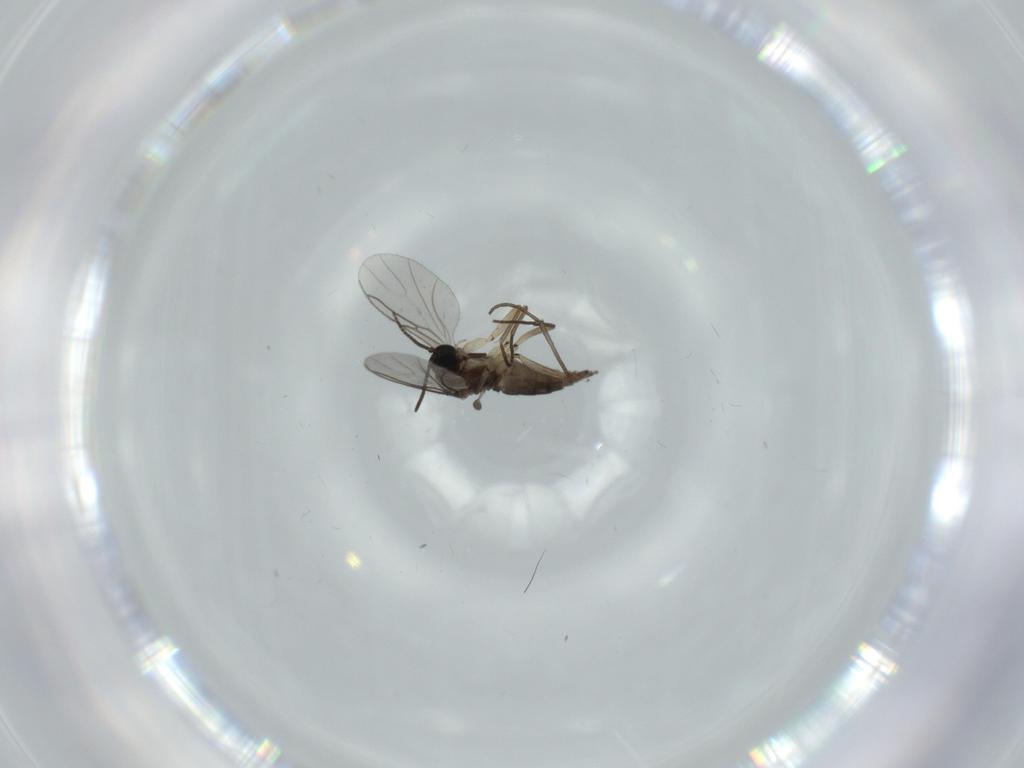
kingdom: Animalia
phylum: Arthropoda
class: Insecta
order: Diptera
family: Sciaridae
